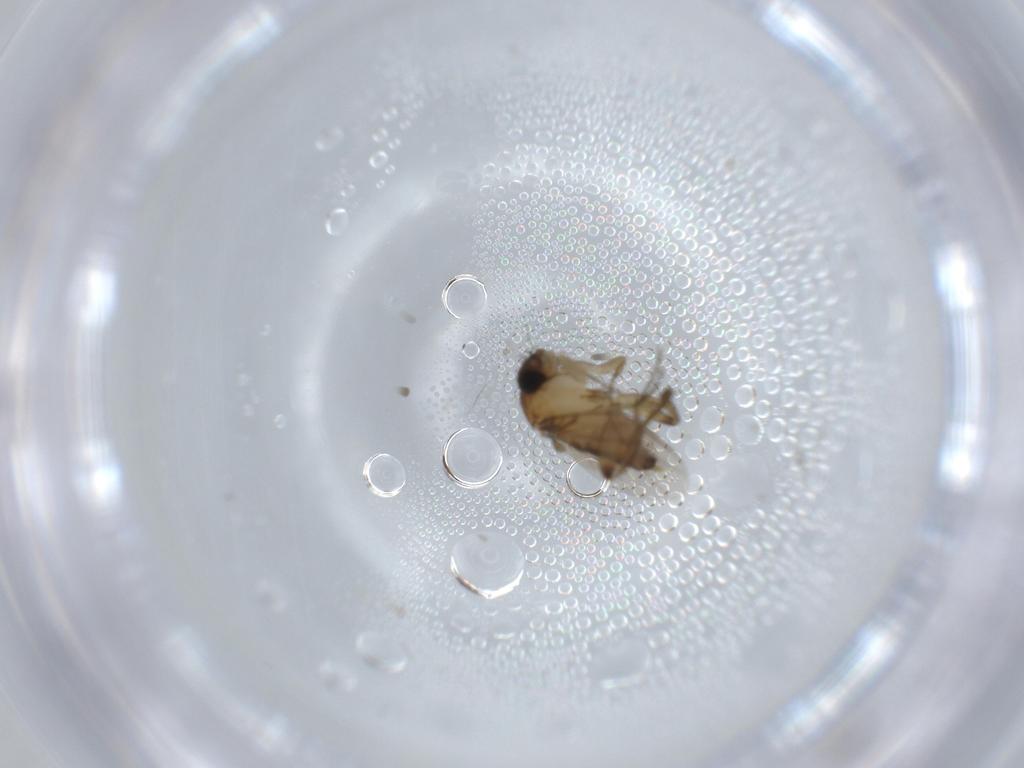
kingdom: Animalia
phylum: Arthropoda
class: Insecta
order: Diptera
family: Phoridae
